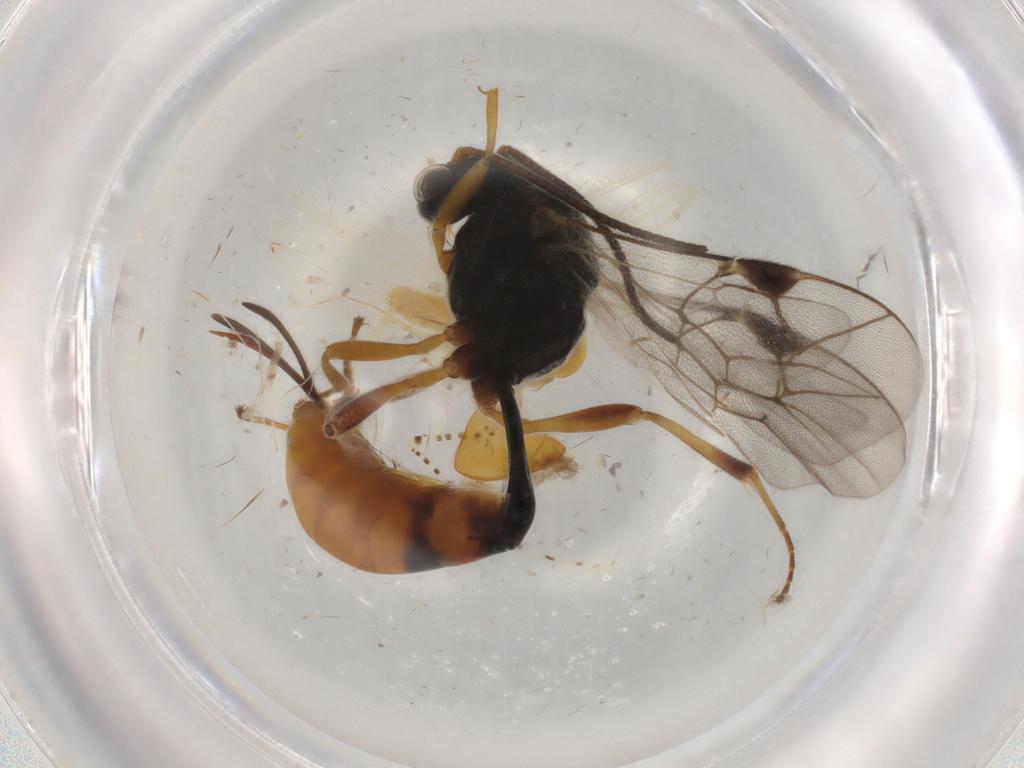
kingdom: Animalia
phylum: Arthropoda
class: Insecta
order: Hymenoptera
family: Ichneumonidae
